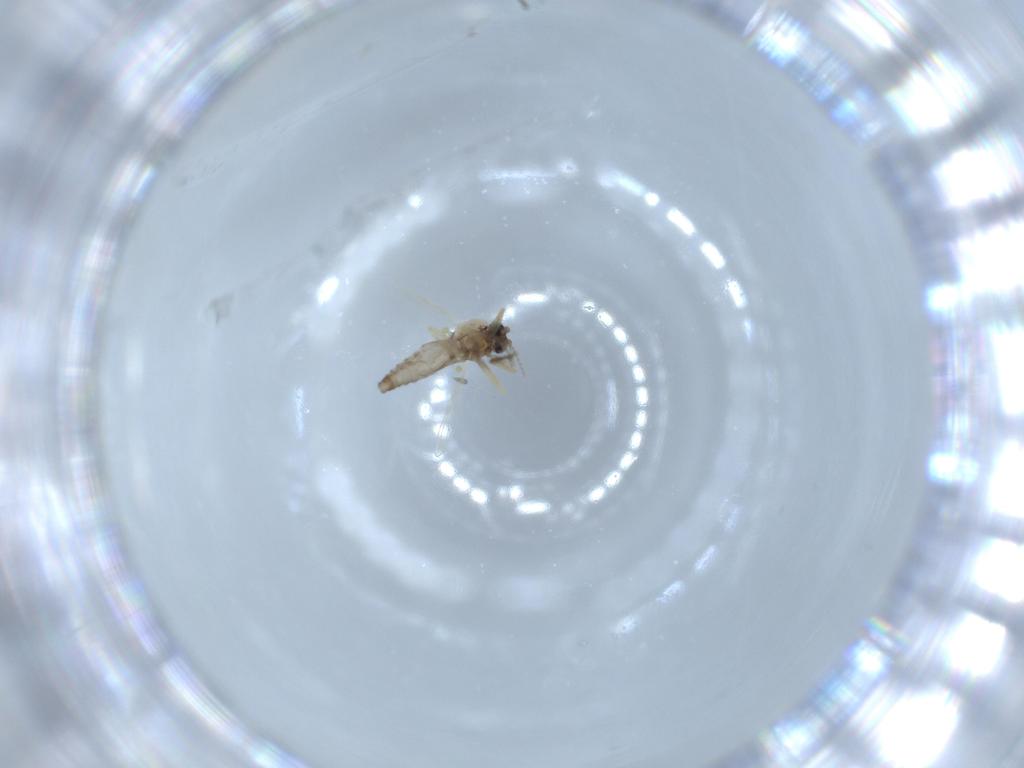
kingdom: Animalia
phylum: Arthropoda
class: Insecta
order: Diptera
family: Ceratopogonidae
